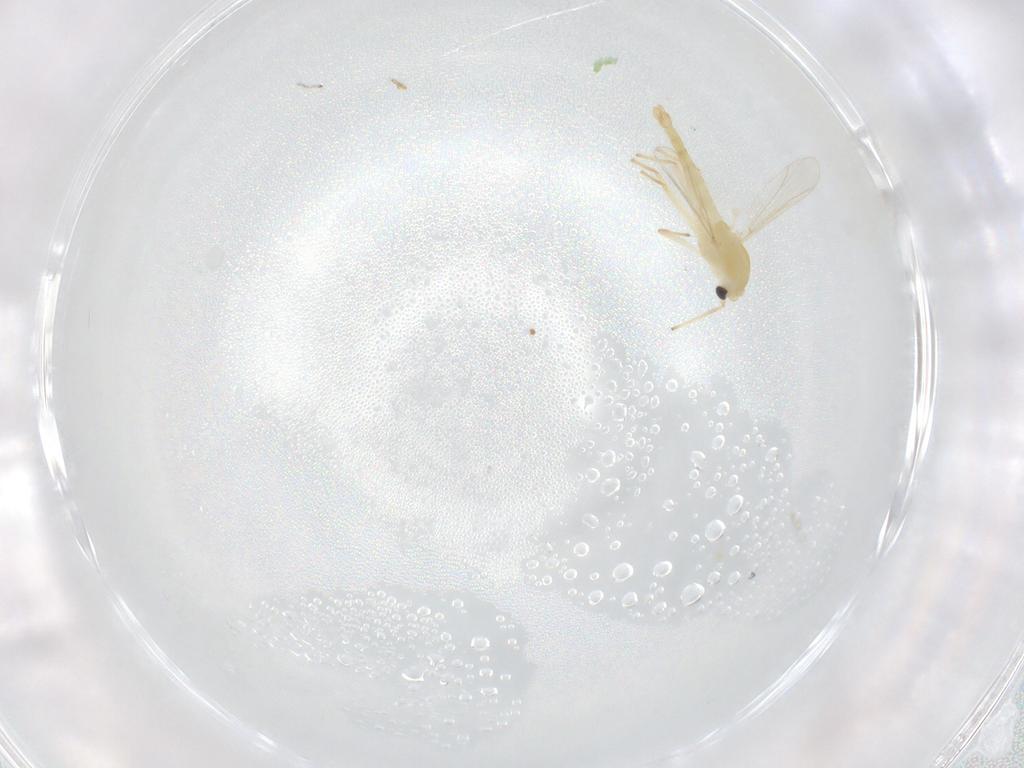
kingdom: Animalia
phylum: Arthropoda
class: Insecta
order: Diptera
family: Chironomidae
